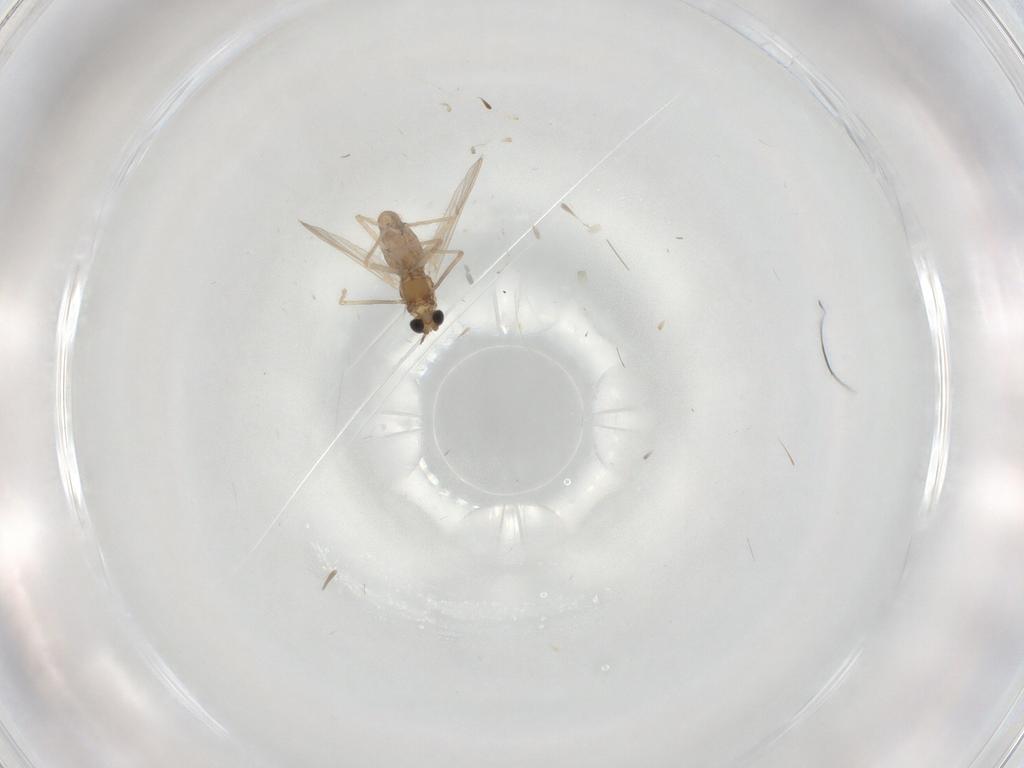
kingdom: Animalia
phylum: Arthropoda
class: Insecta
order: Diptera
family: Chironomidae
